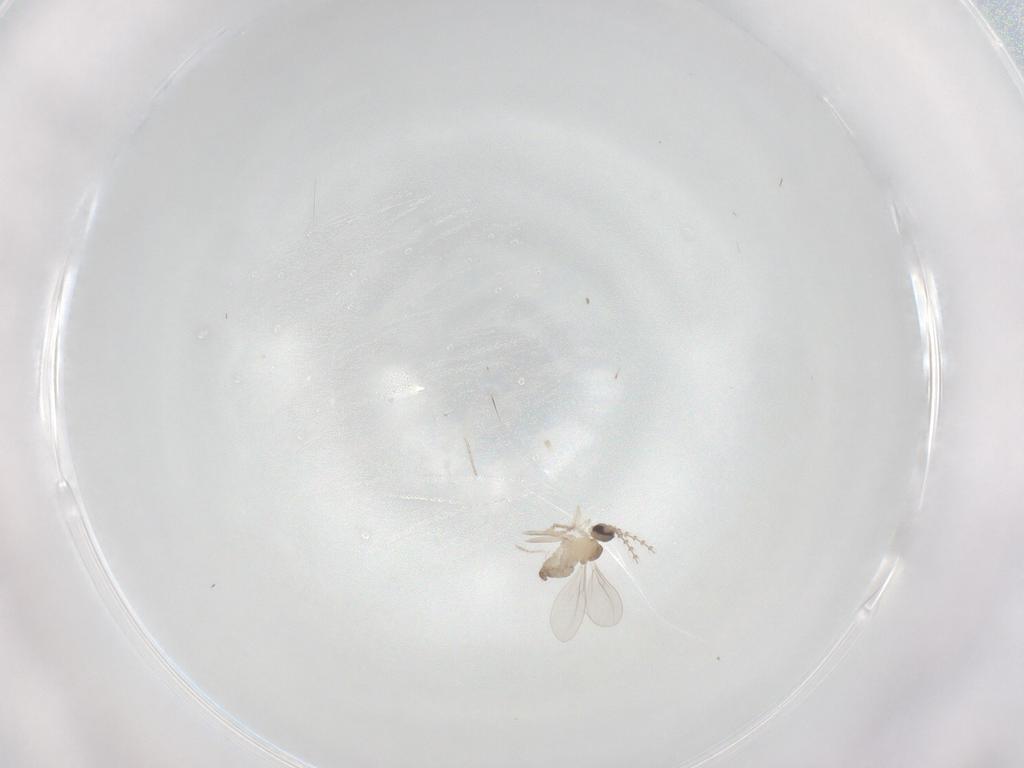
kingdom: Animalia
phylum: Arthropoda
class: Insecta
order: Diptera
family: Cecidomyiidae
